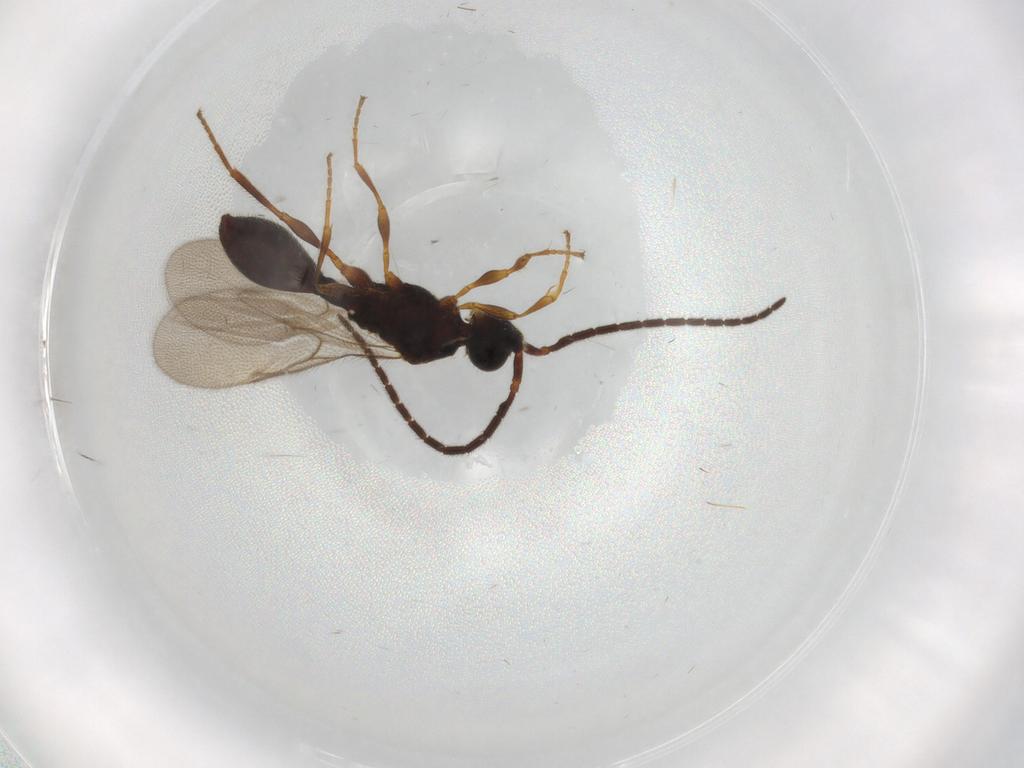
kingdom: Animalia
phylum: Arthropoda
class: Insecta
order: Hymenoptera
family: Diapriidae
